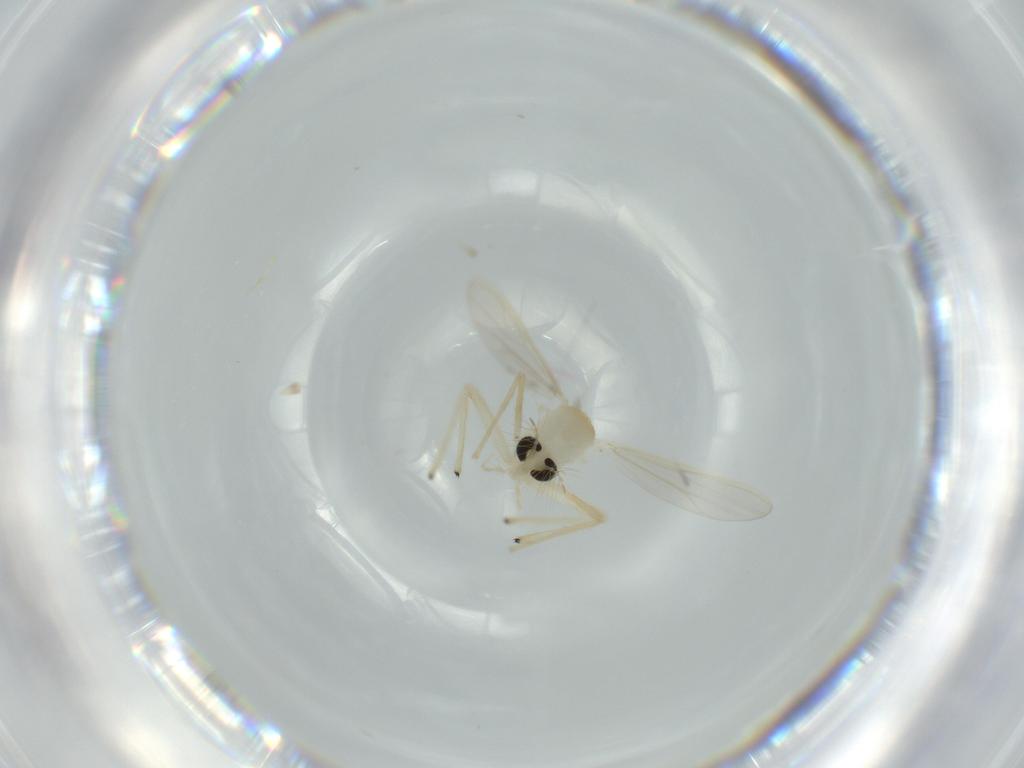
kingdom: Animalia
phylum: Arthropoda
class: Insecta
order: Diptera
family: Chironomidae
